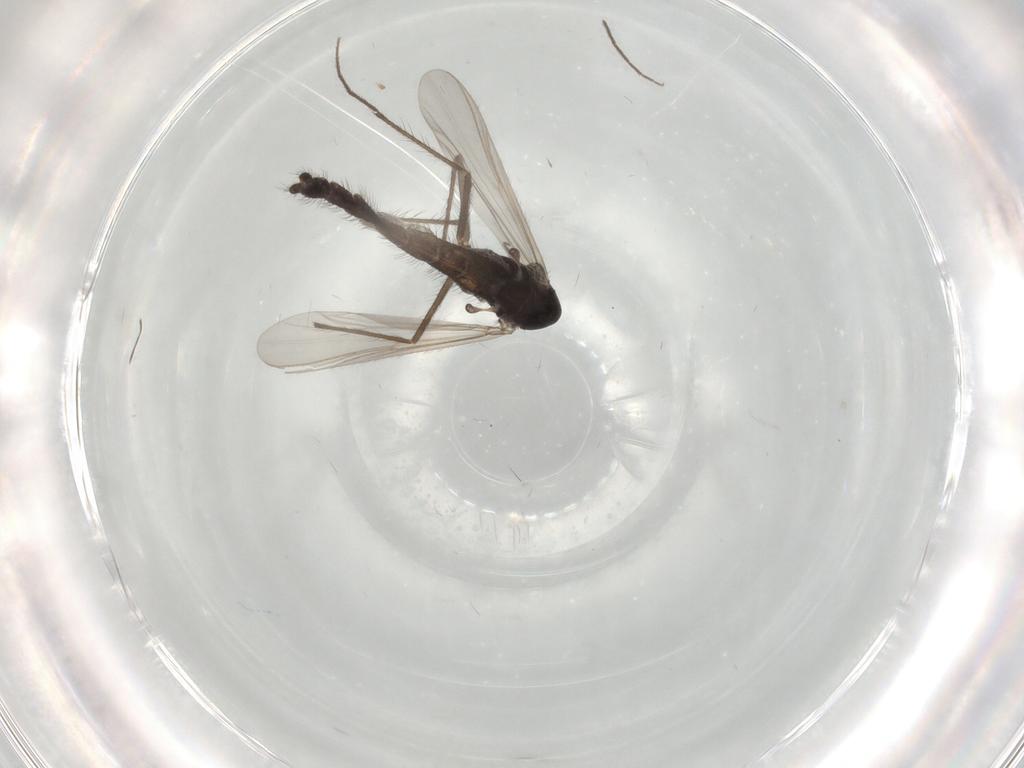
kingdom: Animalia
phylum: Arthropoda
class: Insecta
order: Diptera
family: Chironomidae
